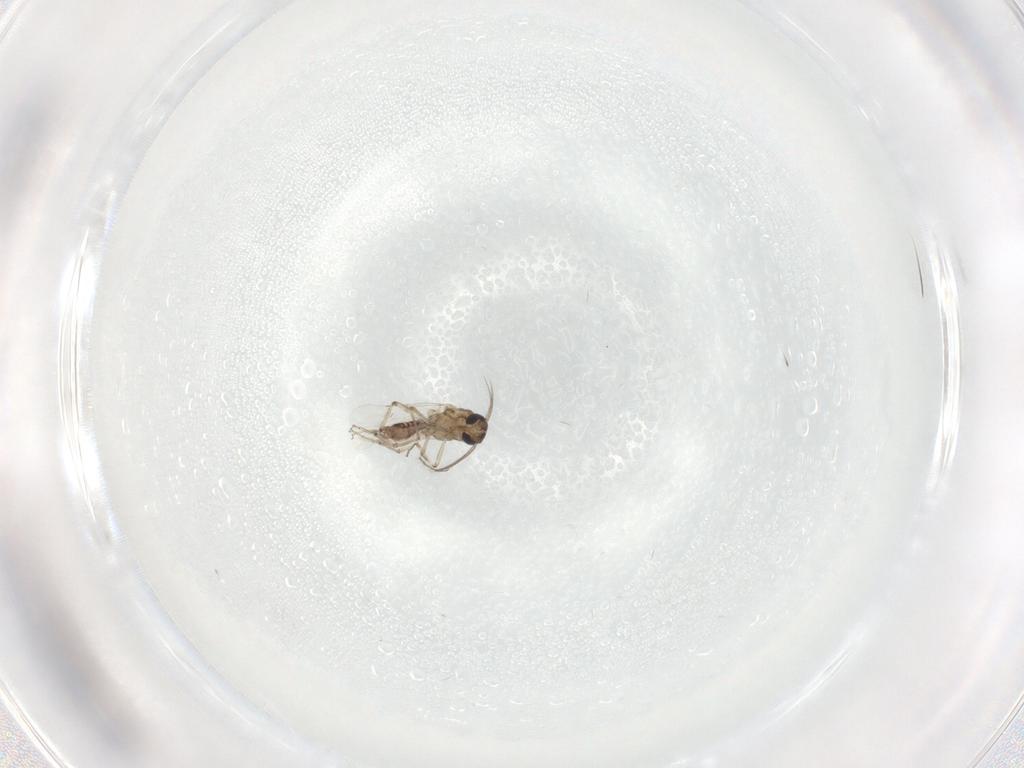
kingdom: Animalia
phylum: Arthropoda
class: Insecta
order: Diptera
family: Ceratopogonidae
